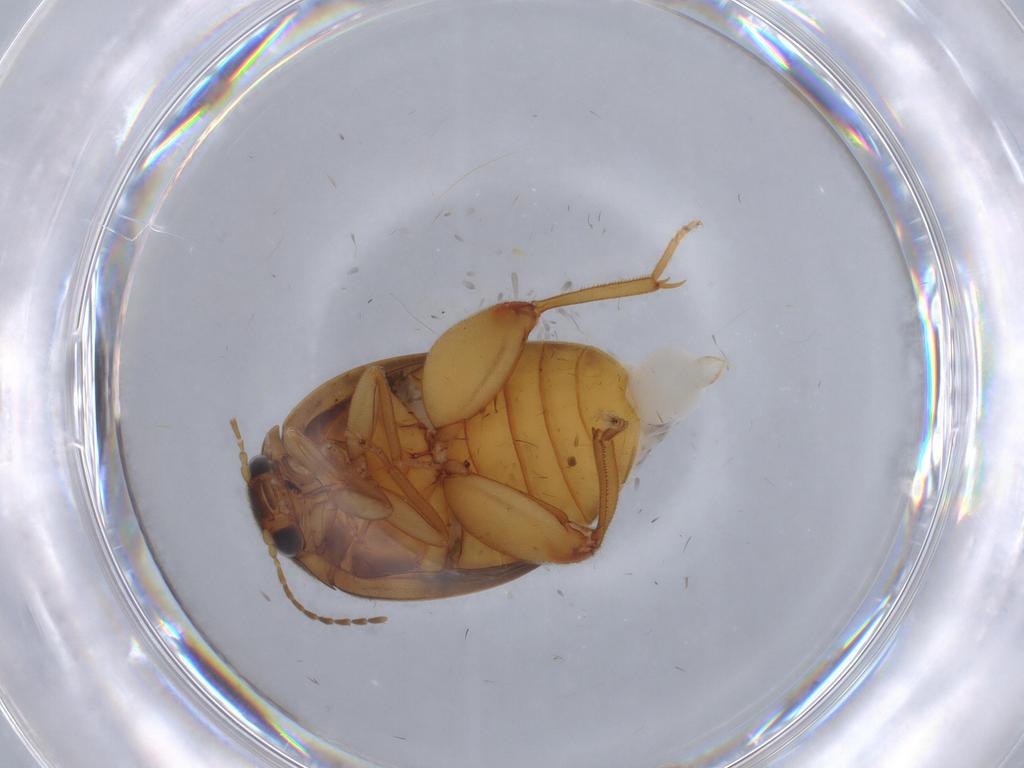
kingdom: Animalia
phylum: Arthropoda
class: Insecta
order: Coleoptera
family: Scirtidae
